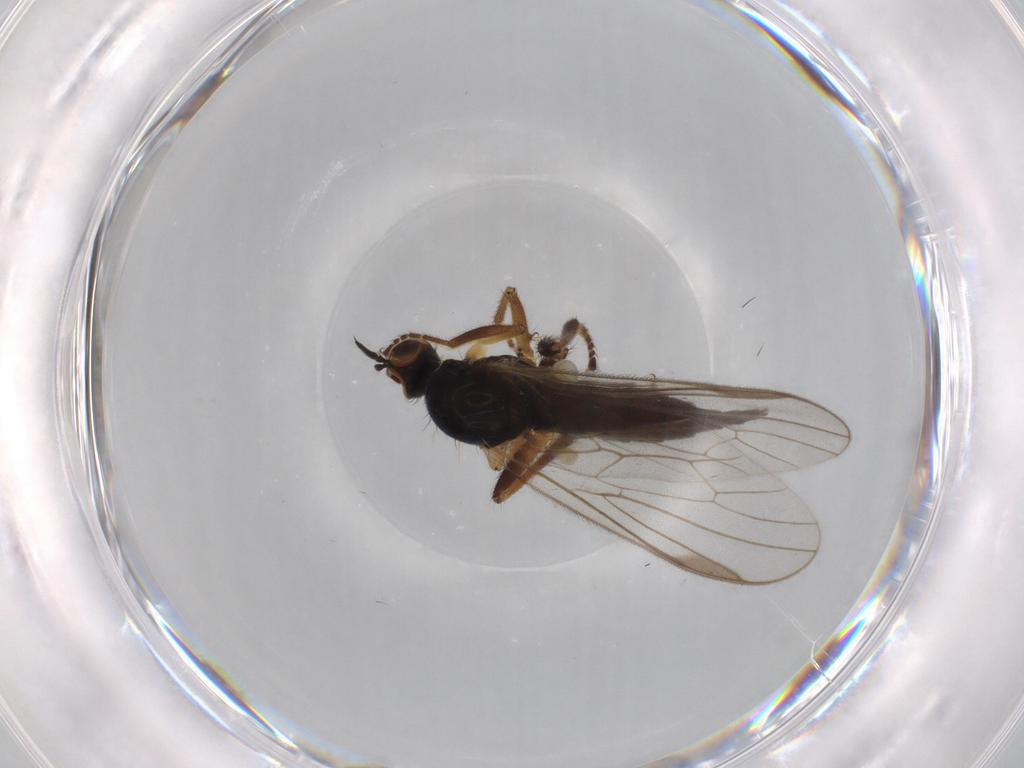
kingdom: Animalia
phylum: Arthropoda
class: Insecta
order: Diptera
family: Hybotidae
